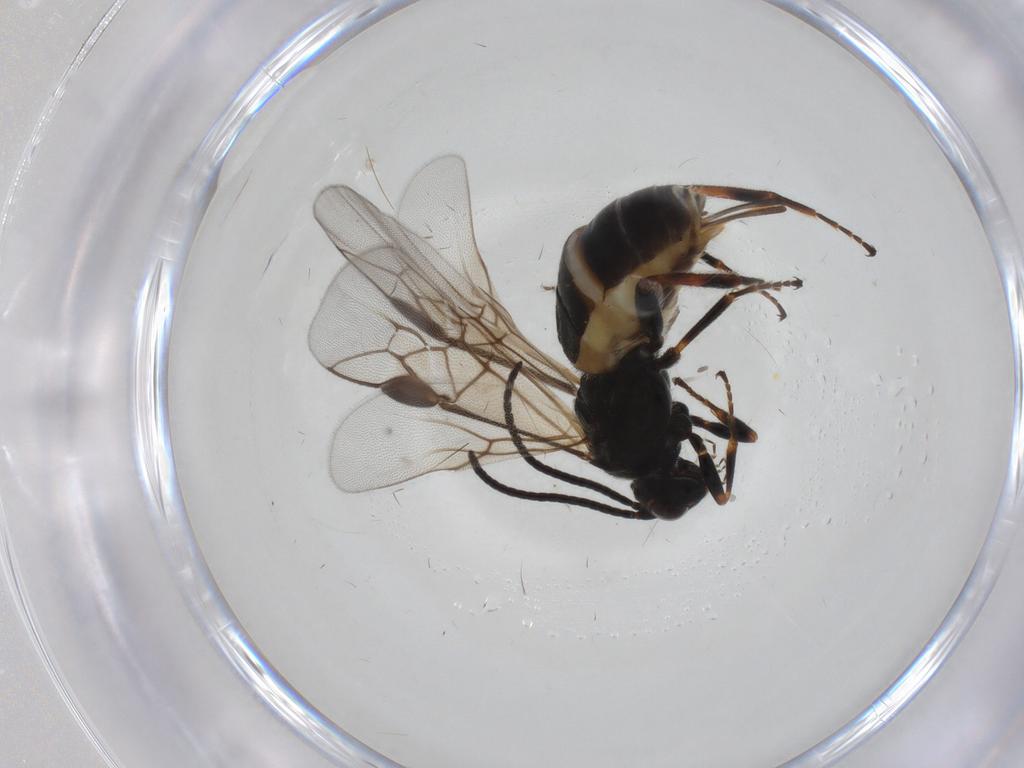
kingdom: Animalia
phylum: Arthropoda
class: Insecta
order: Hymenoptera
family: Braconidae
